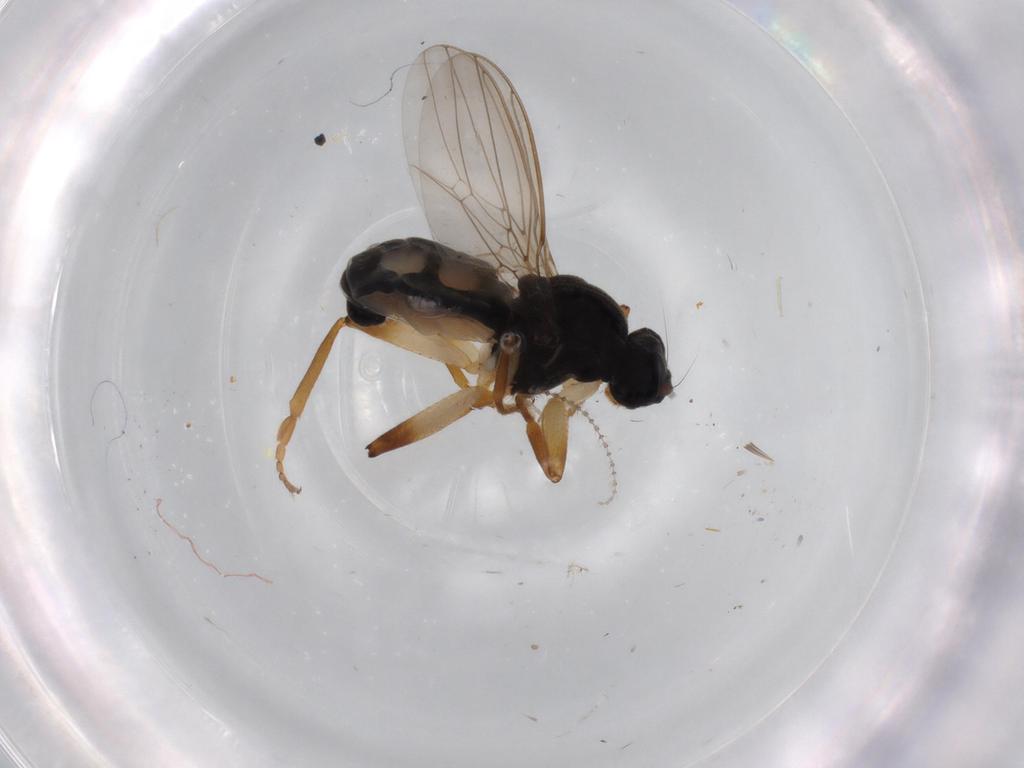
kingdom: Animalia
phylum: Arthropoda
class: Insecta
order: Diptera
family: Sphaeroceridae
